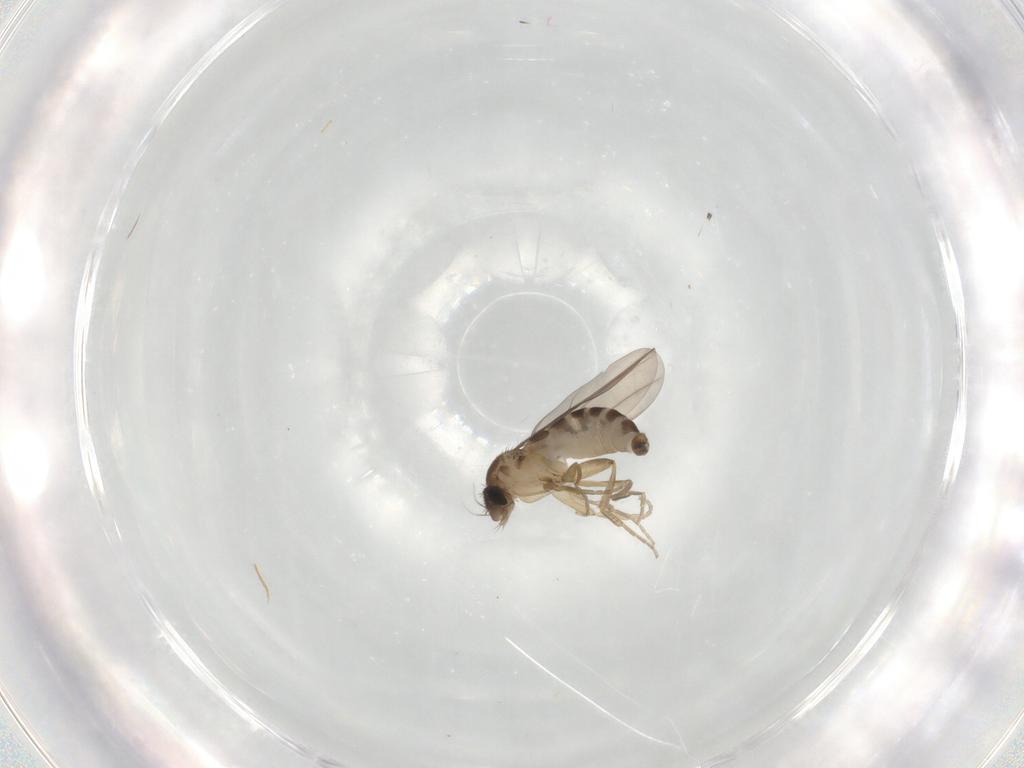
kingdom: Animalia
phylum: Arthropoda
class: Insecta
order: Diptera
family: Phoridae
